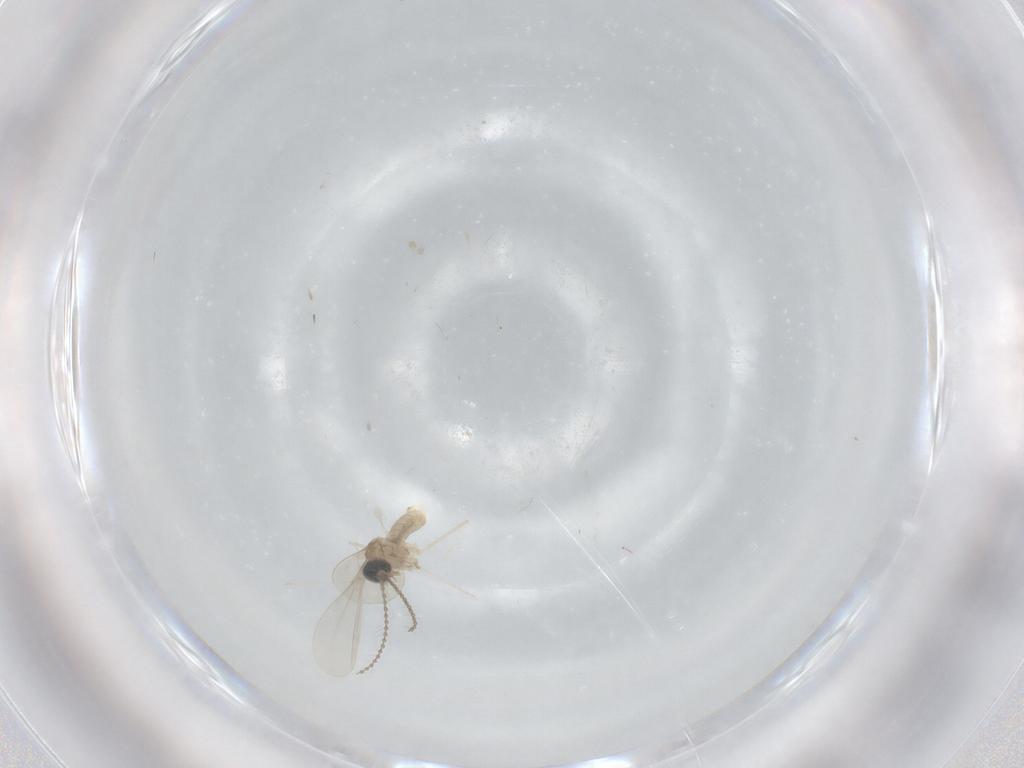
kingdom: Animalia
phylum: Arthropoda
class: Insecta
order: Diptera
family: Cecidomyiidae
